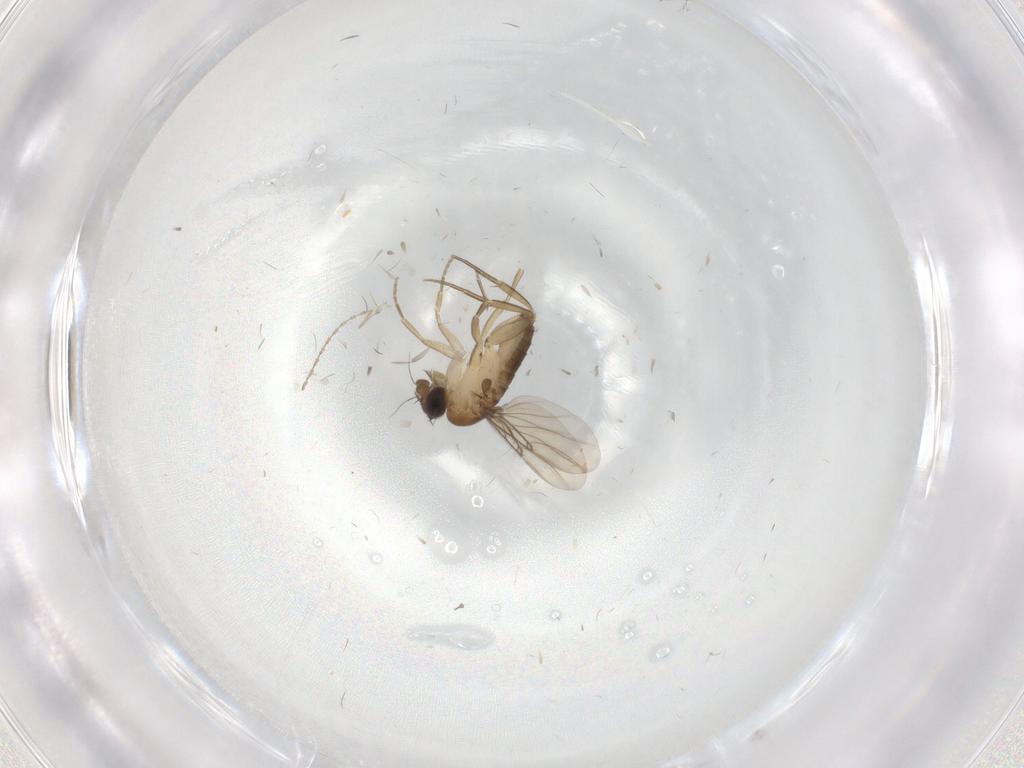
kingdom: Animalia
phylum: Arthropoda
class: Insecta
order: Diptera
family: Phoridae
